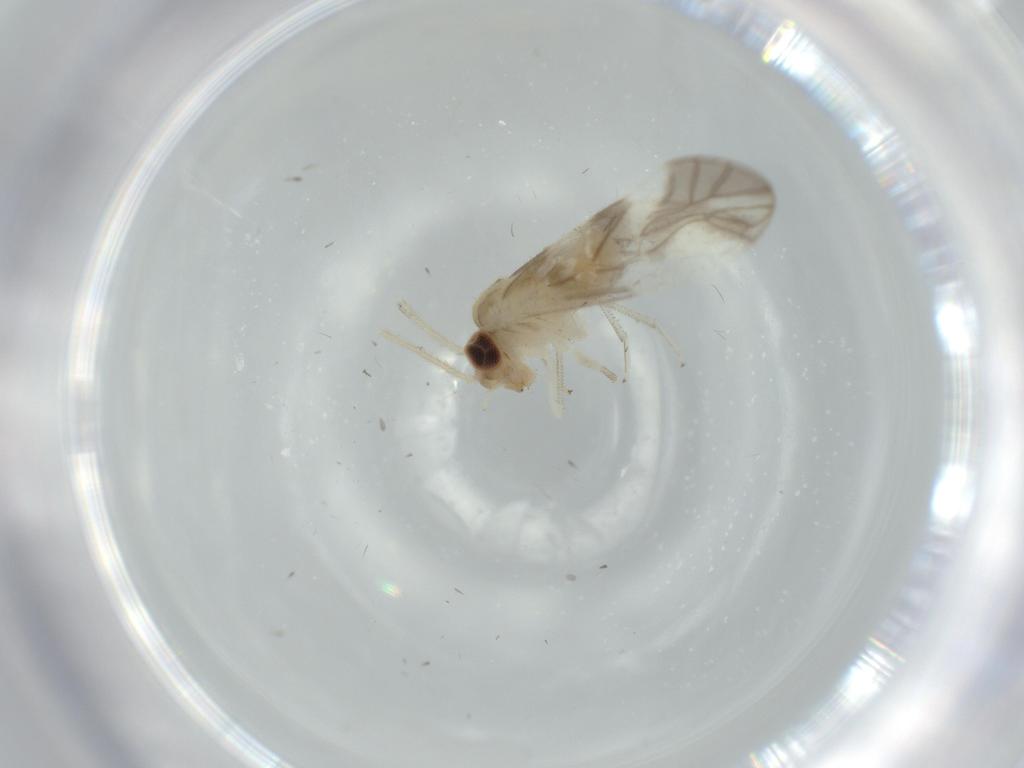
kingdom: Animalia
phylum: Arthropoda
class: Insecta
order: Psocodea
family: Caeciliusidae
